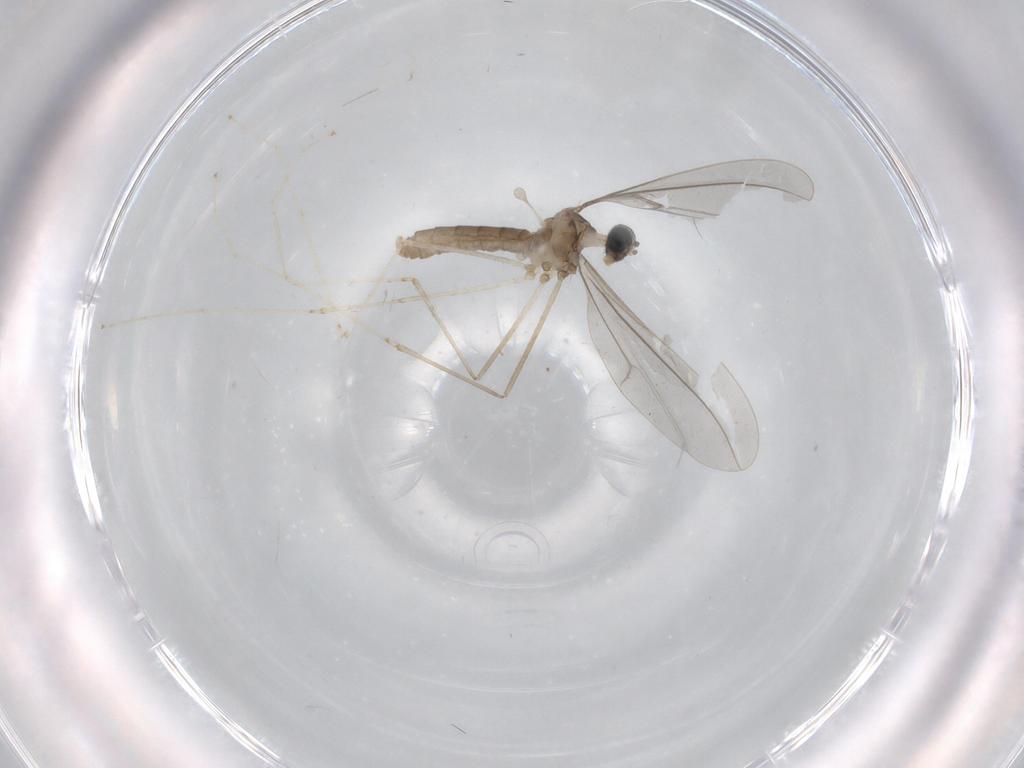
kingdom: Animalia
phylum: Arthropoda
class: Insecta
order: Diptera
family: Cecidomyiidae
